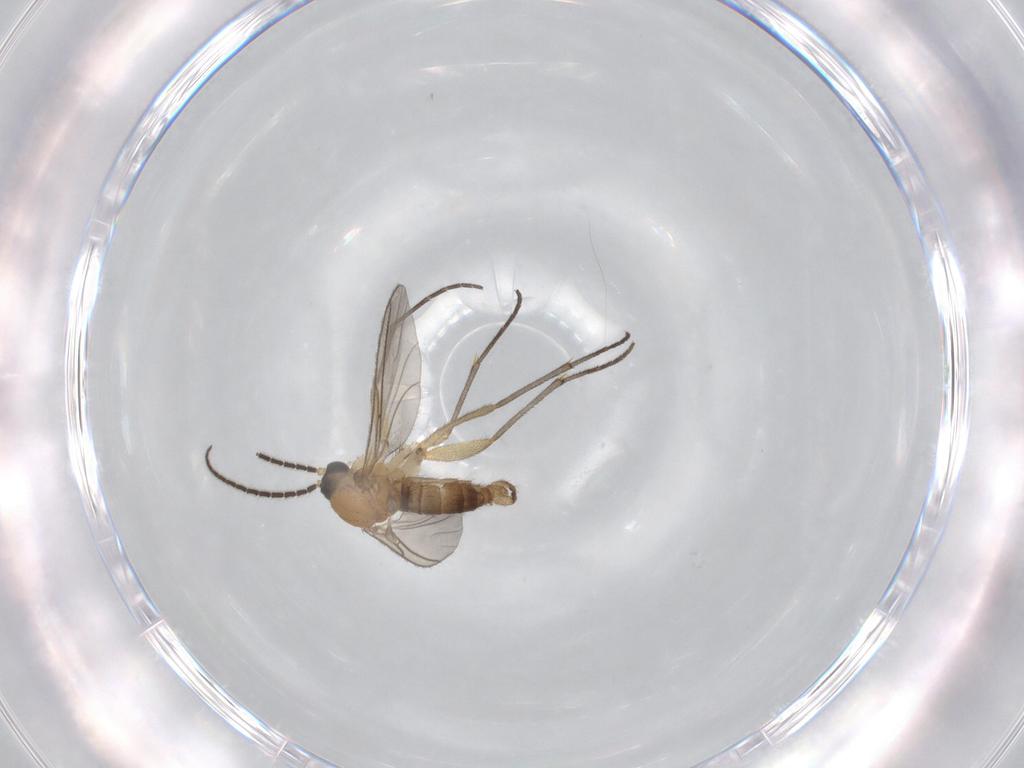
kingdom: Animalia
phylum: Arthropoda
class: Insecta
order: Diptera
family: Sciaridae
